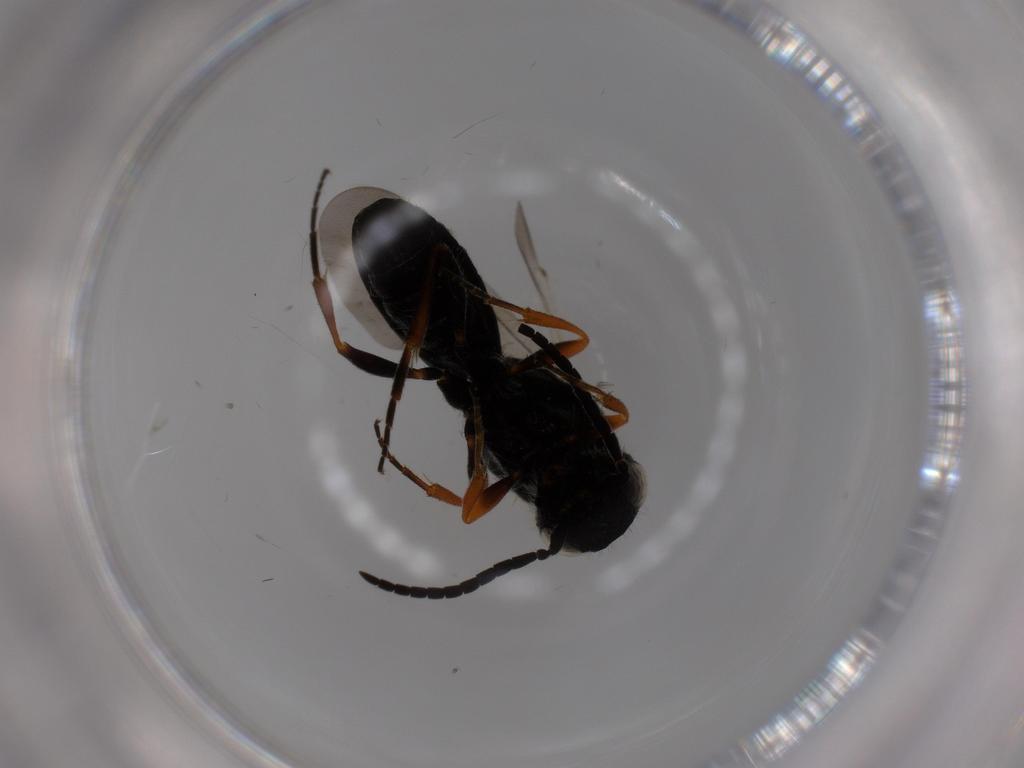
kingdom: Animalia
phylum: Arthropoda
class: Insecta
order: Hymenoptera
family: Scelionidae
